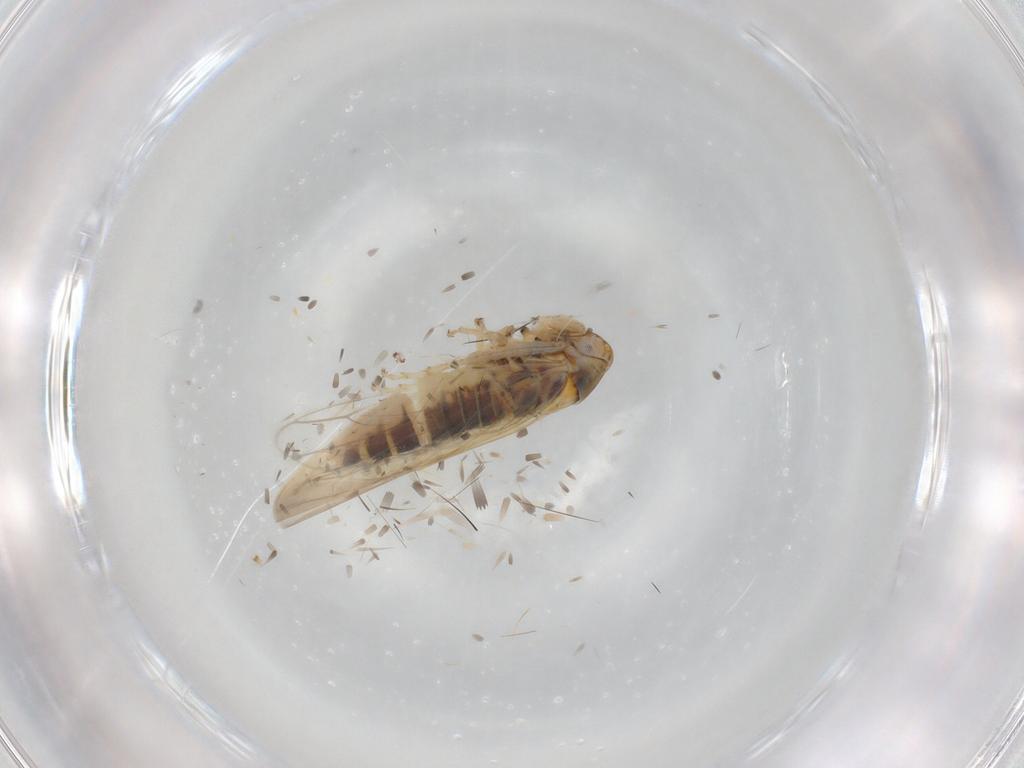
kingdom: Animalia
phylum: Arthropoda
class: Insecta
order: Hemiptera
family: Cicadellidae
